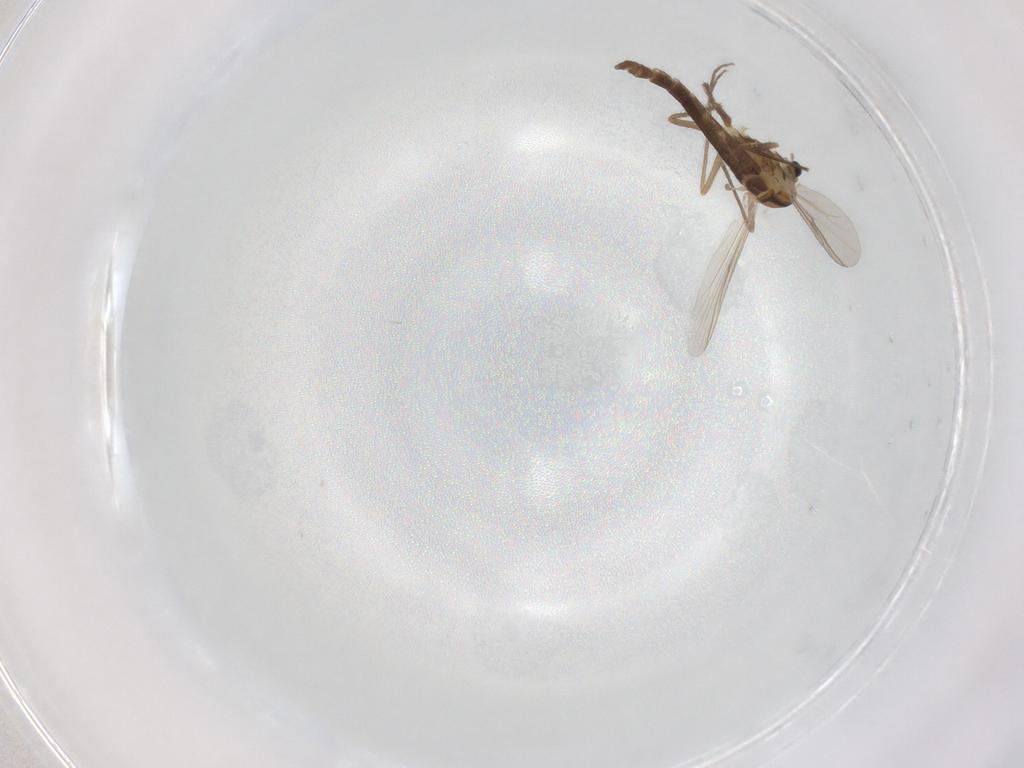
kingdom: Animalia
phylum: Arthropoda
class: Insecta
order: Diptera
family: Chironomidae
